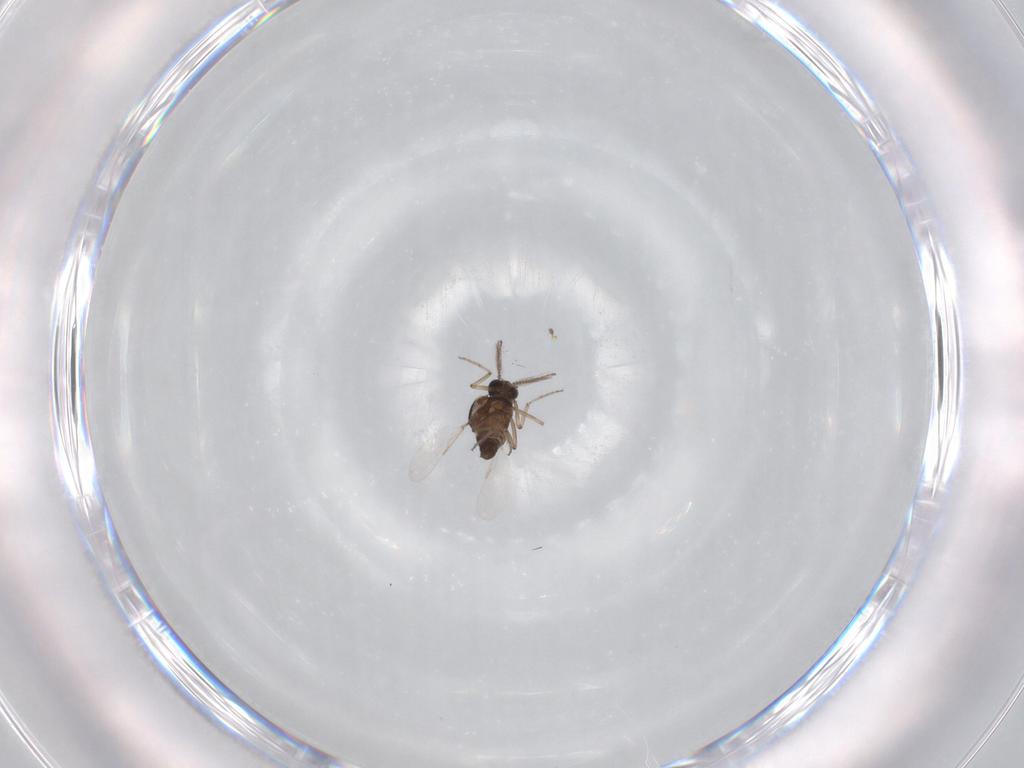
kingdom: Animalia
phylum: Arthropoda
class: Insecta
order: Diptera
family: Ceratopogonidae
